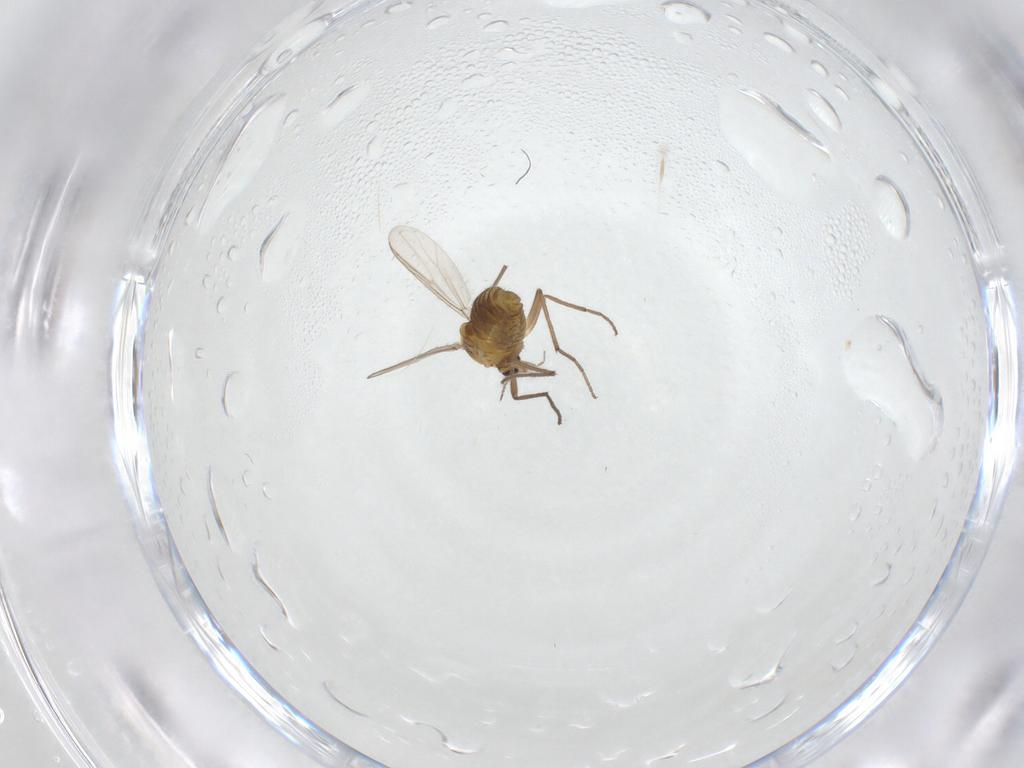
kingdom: Animalia
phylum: Arthropoda
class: Insecta
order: Diptera
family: Chironomidae
